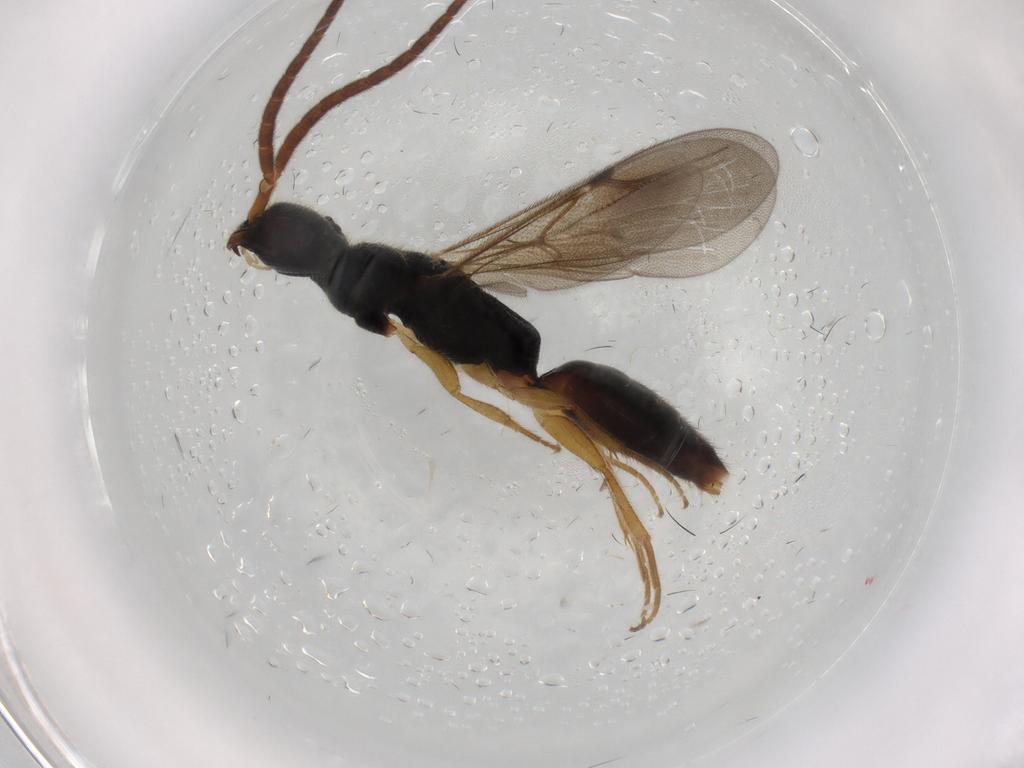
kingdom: Animalia
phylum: Arthropoda
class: Insecta
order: Hymenoptera
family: Bethylidae
